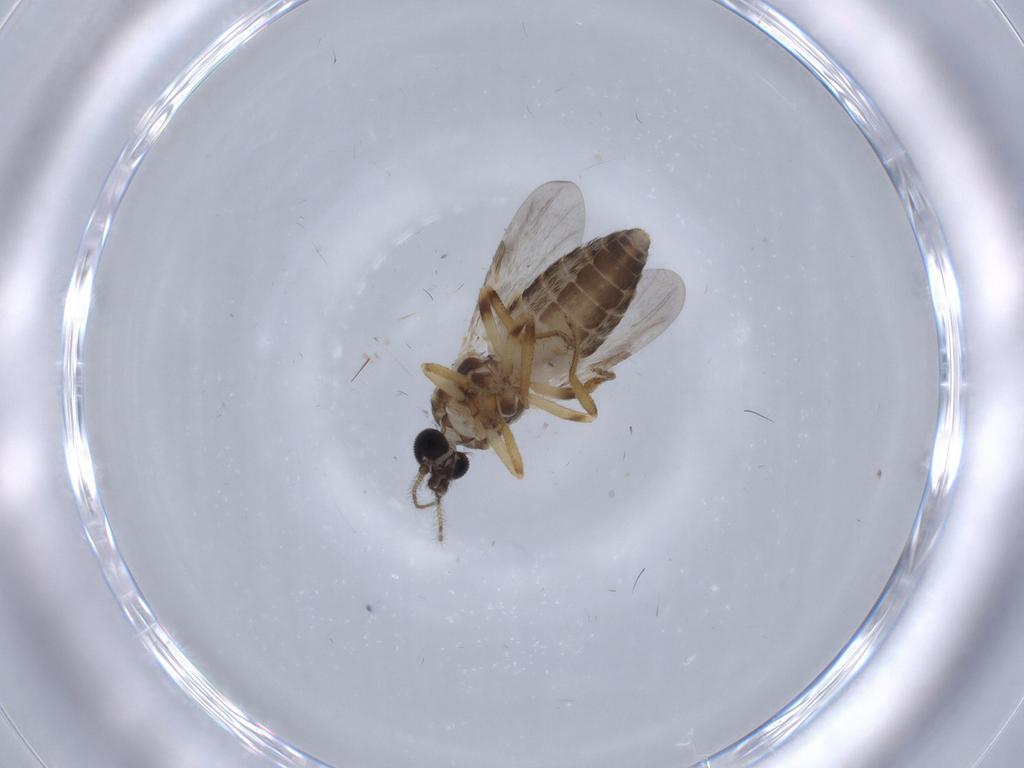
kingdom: Animalia
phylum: Arthropoda
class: Insecta
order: Diptera
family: Ceratopogonidae
